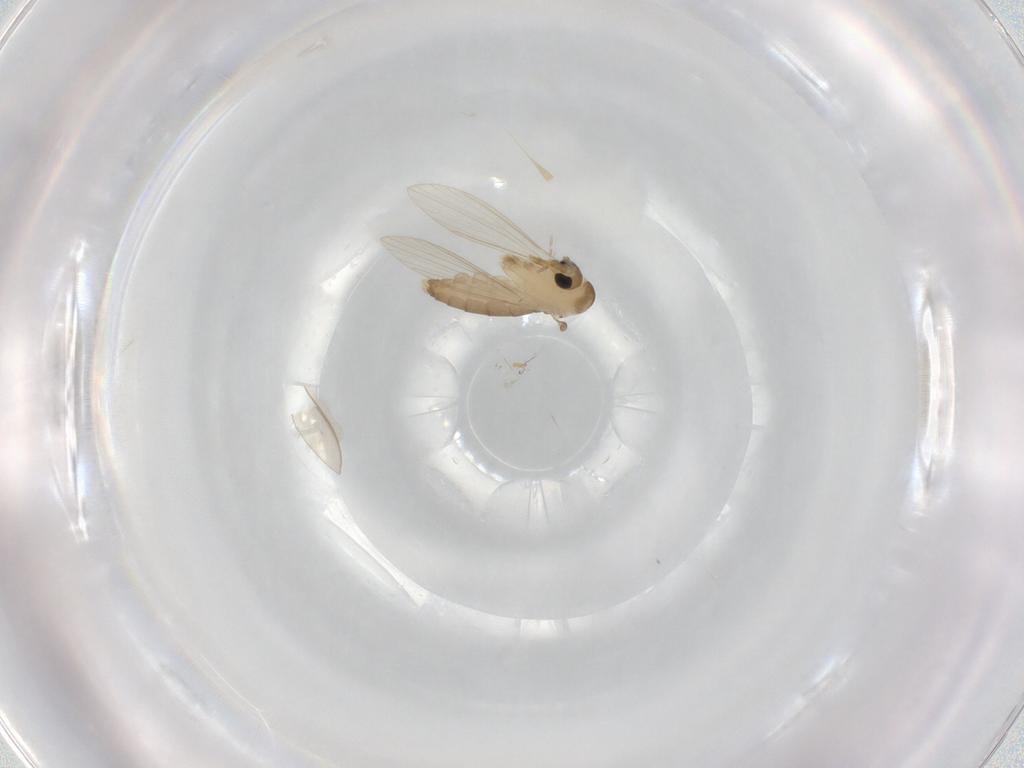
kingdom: Animalia
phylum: Arthropoda
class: Insecta
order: Diptera
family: Psychodidae
